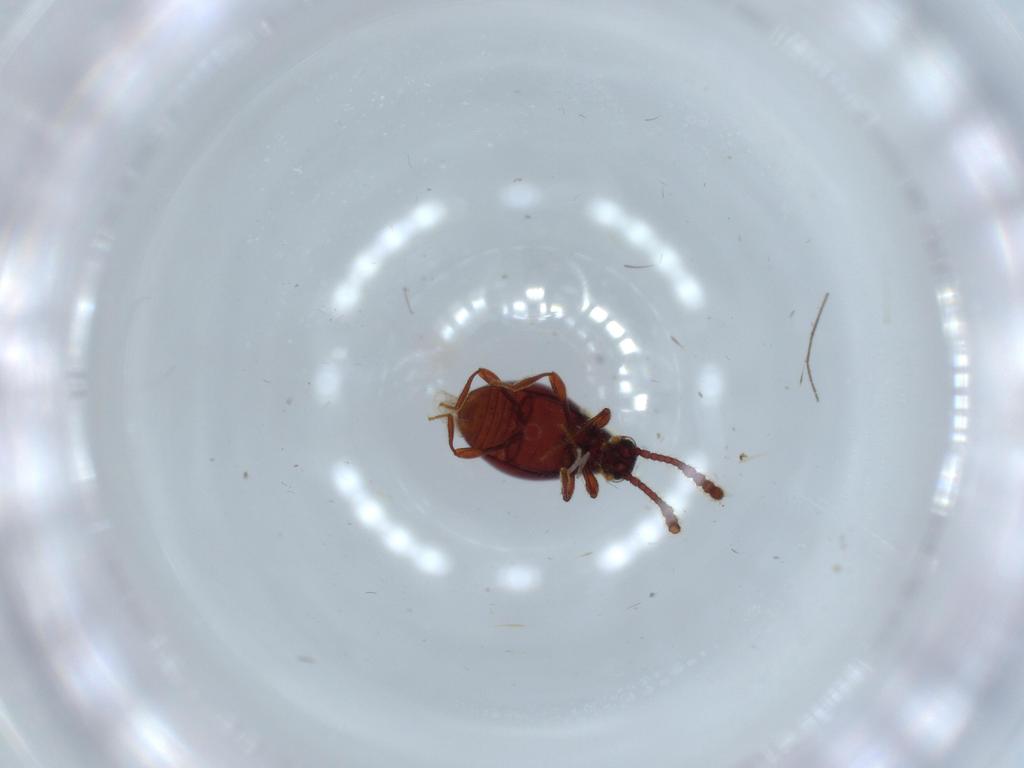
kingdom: Animalia
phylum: Arthropoda
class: Insecta
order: Coleoptera
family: Staphylinidae
